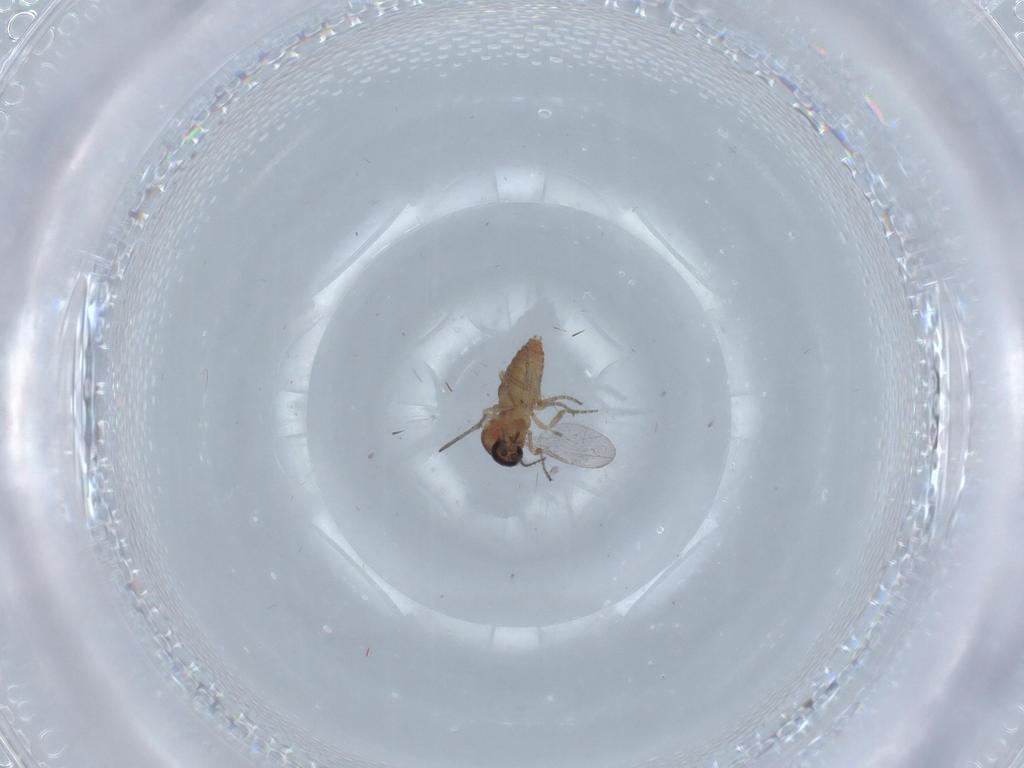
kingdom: Animalia
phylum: Arthropoda
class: Insecta
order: Diptera
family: Chironomidae
